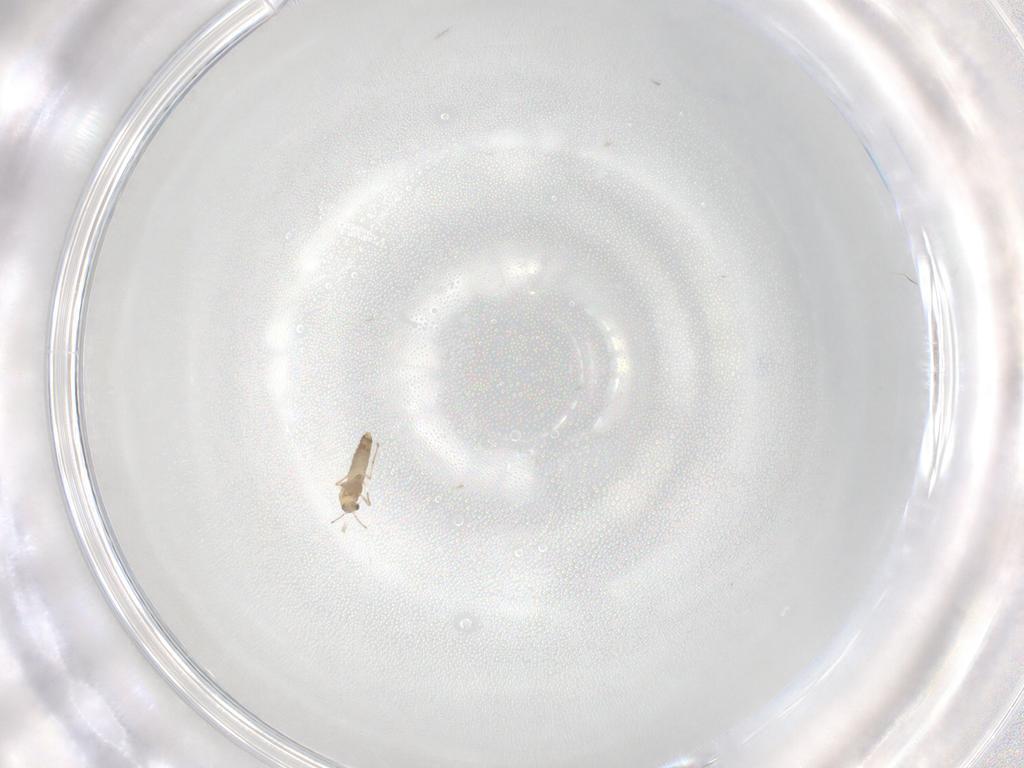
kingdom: Animalia
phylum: Arthropoda
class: Insecta
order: Diptera
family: Chironomidae
